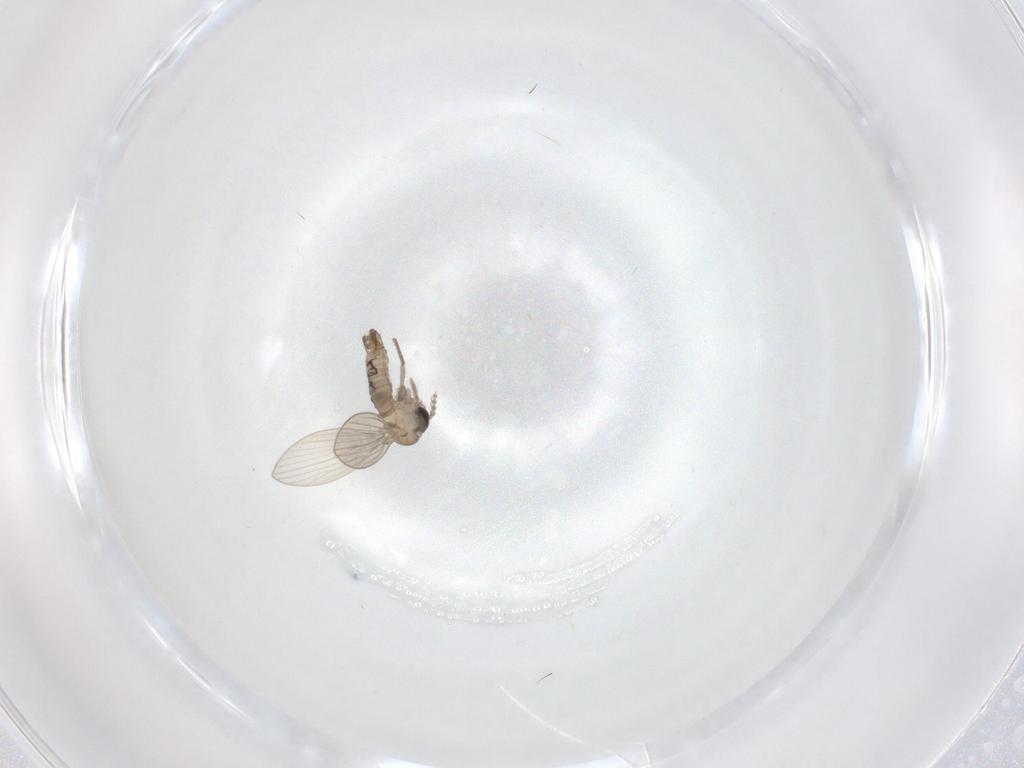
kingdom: Animalia
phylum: Arthropoda
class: Insecta
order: Diptera
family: Psychodidae
